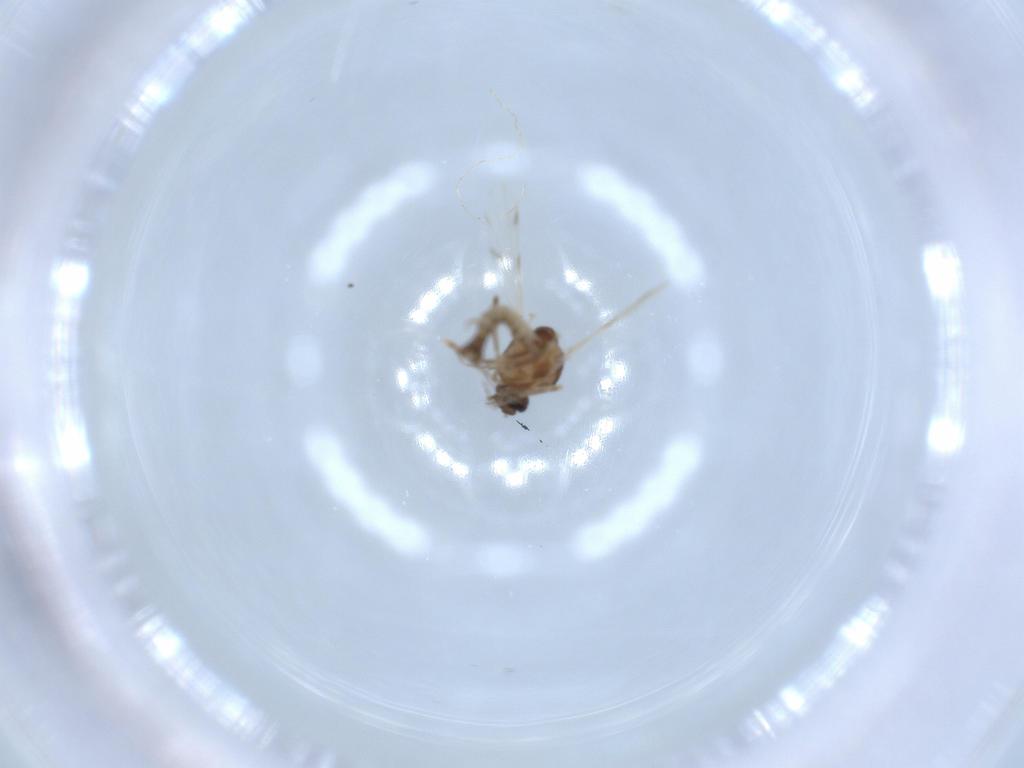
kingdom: Animalia
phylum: Arthropoda
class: Insecta
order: Diptera
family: Ceratopogonidae
